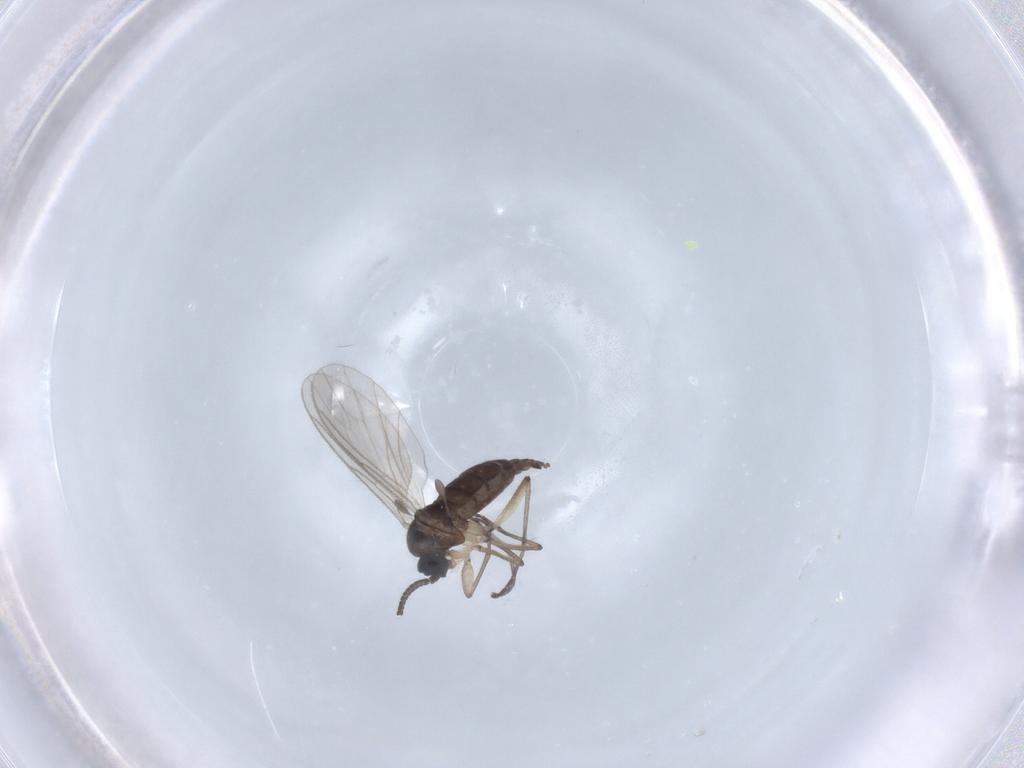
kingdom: Animalia
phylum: Arthropoda
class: Insecta
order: Diptera
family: Sciaridae
